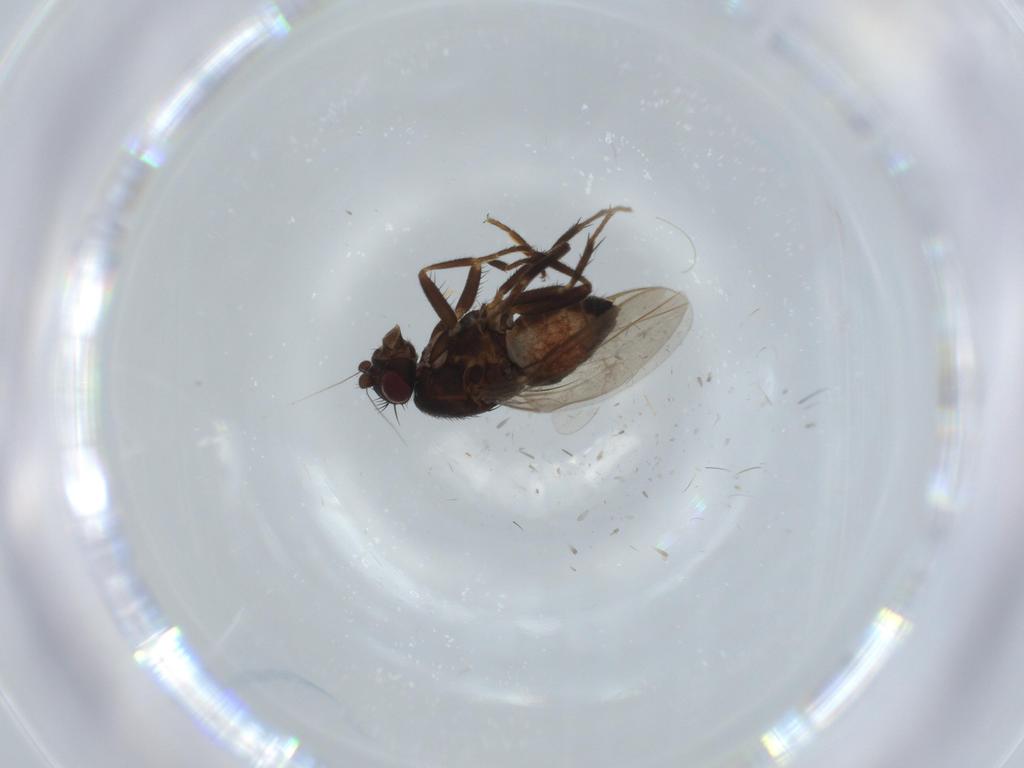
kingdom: Animalia
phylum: Arthropoda
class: Insecta
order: Diptera
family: Sphaeroceridae
